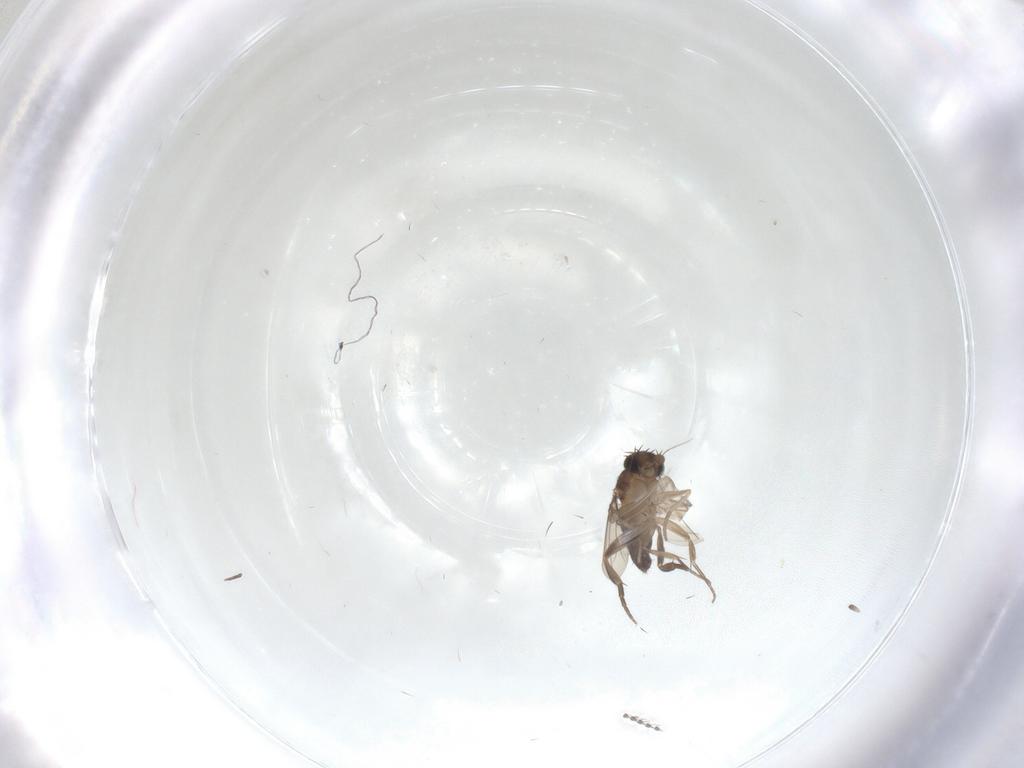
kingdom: Animalia
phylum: Arthropoda
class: Insecta
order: Diptera
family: Phoridae
